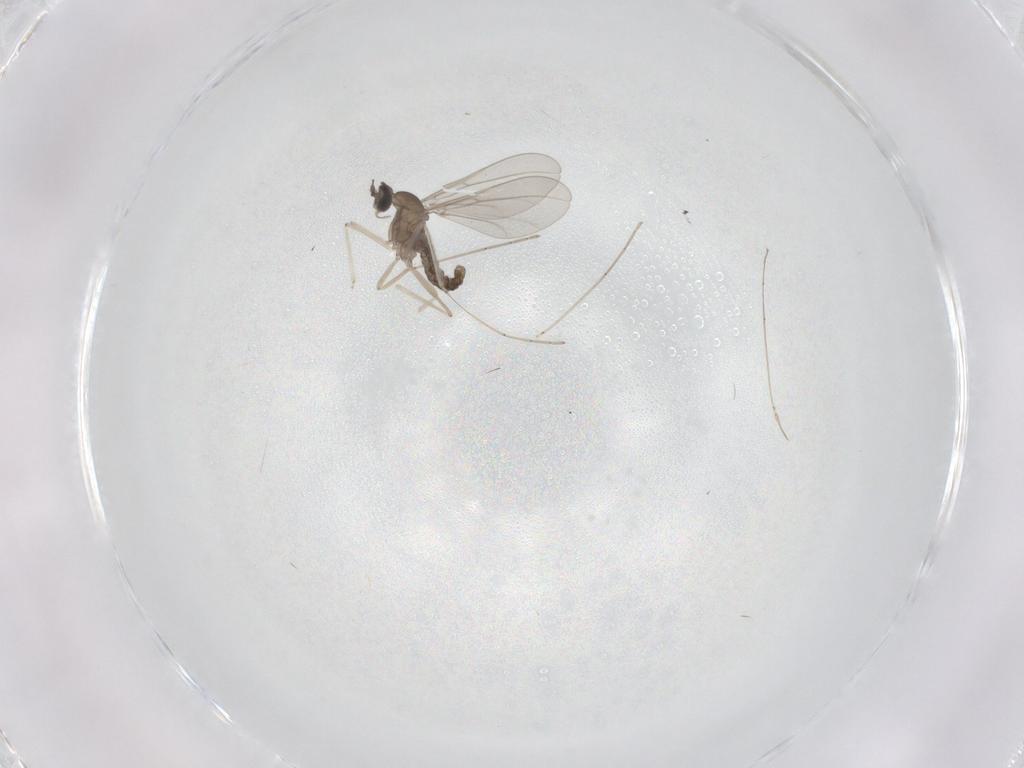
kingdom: Animalia
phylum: Arthropoda
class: Insecta
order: Diptera
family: Cecidomyiidae
